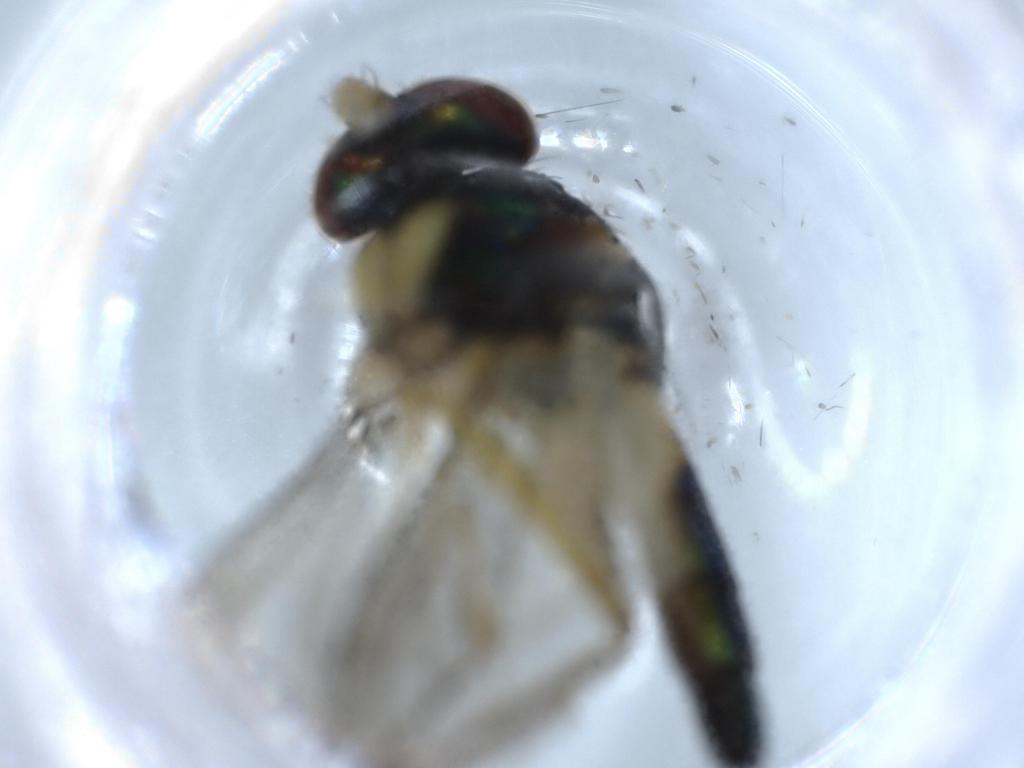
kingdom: Animalia
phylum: Arthropoda
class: Insecta
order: Diptera
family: Dolichopodidae
